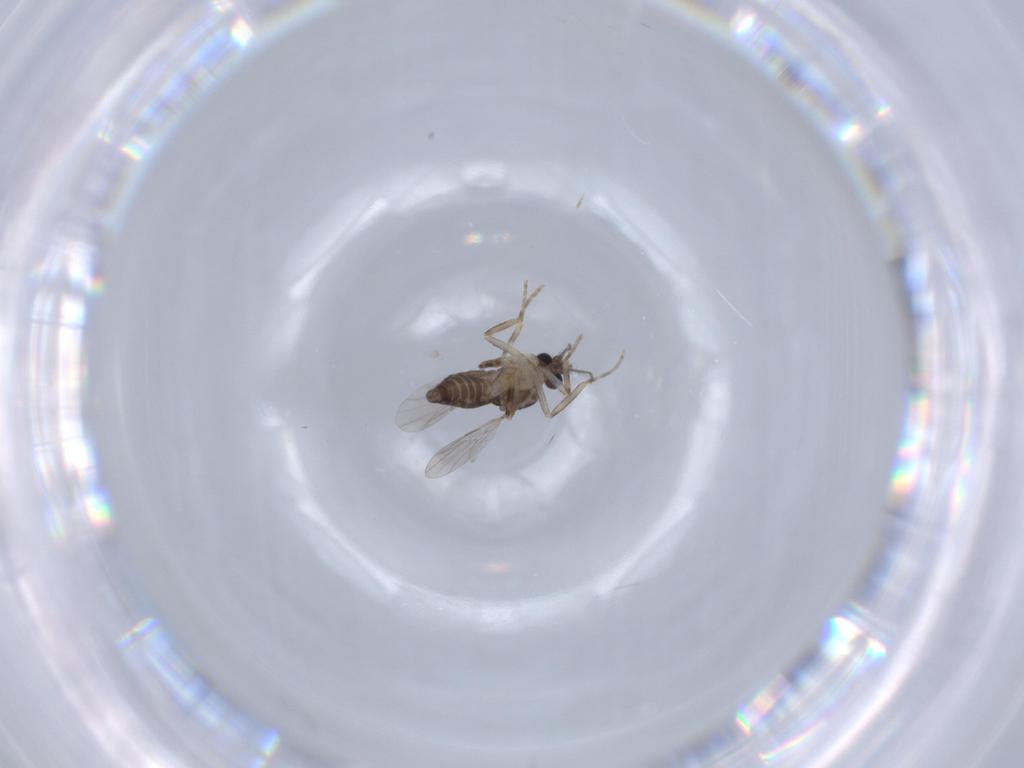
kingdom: Animalia
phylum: Arthropoda
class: Insecta
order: Diptera
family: Ceratopogonidae
